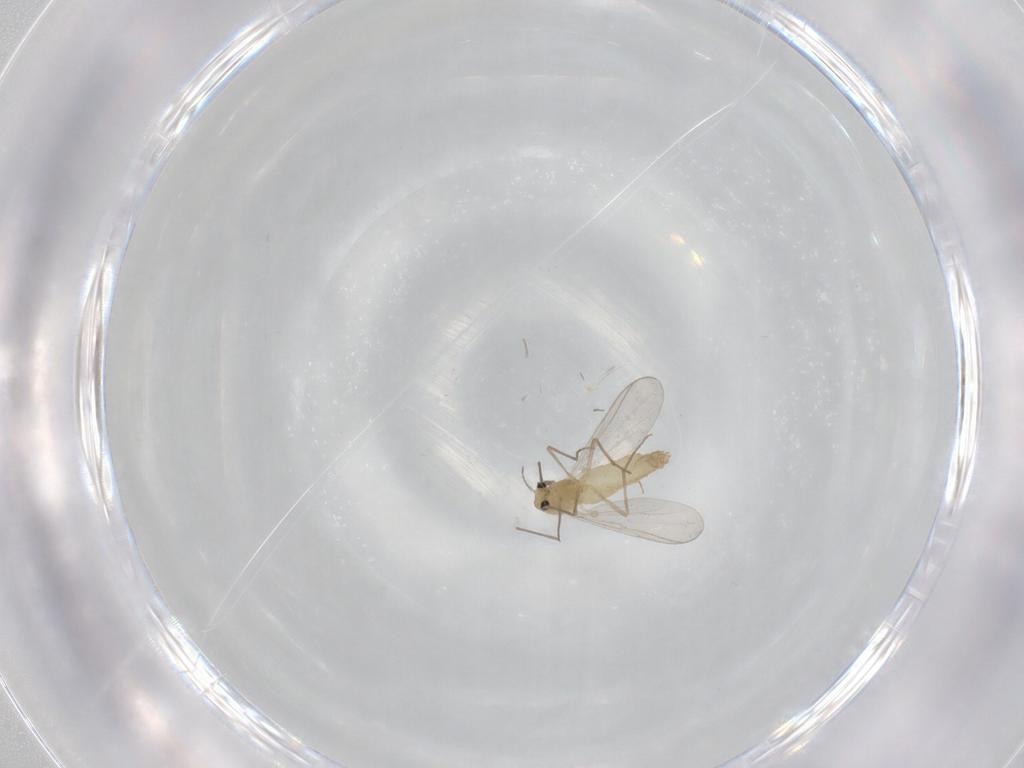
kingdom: Animalia
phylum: Arthropoda
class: Insecta
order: Diptera
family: Chironomidae
